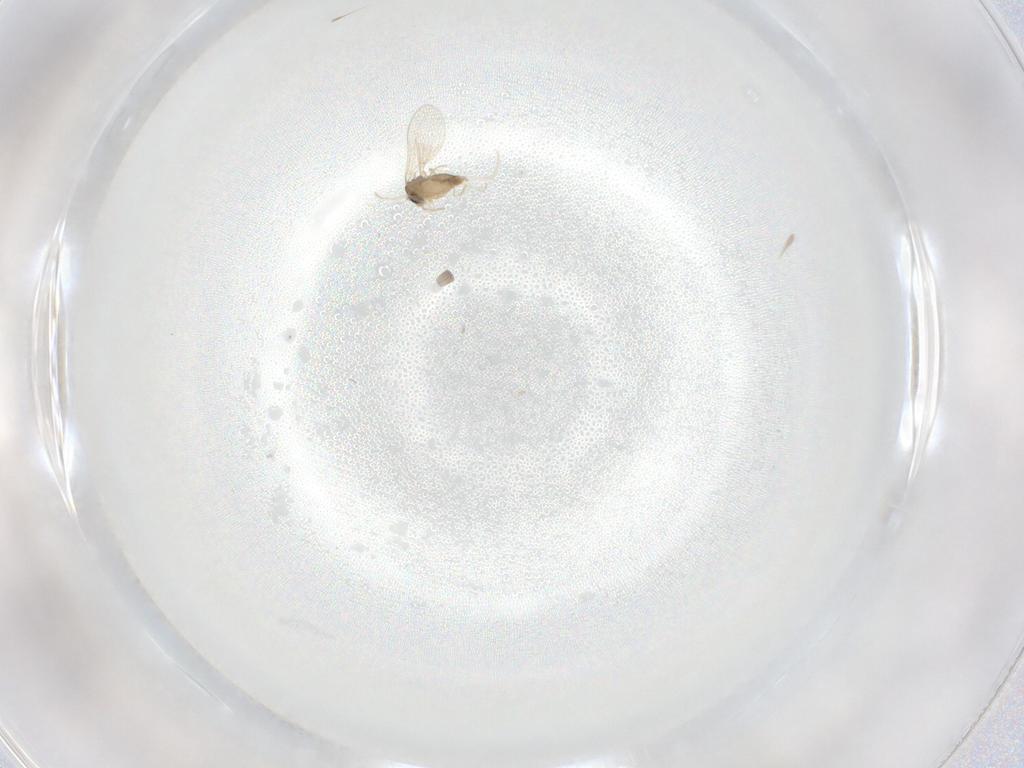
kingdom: Animalia
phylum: Arthropoda
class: Insecta
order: Diptera
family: Cecidomyiidae
